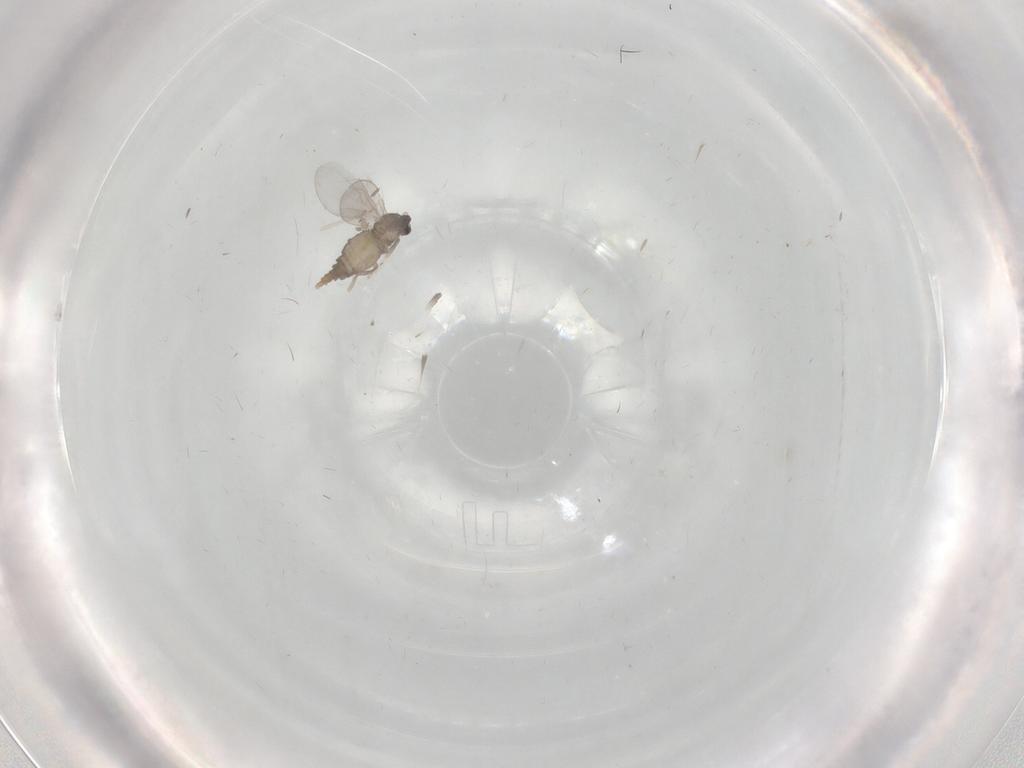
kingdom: Animalia
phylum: Arthropoda
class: Insecta
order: Diptera
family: Cecidomyiidae
